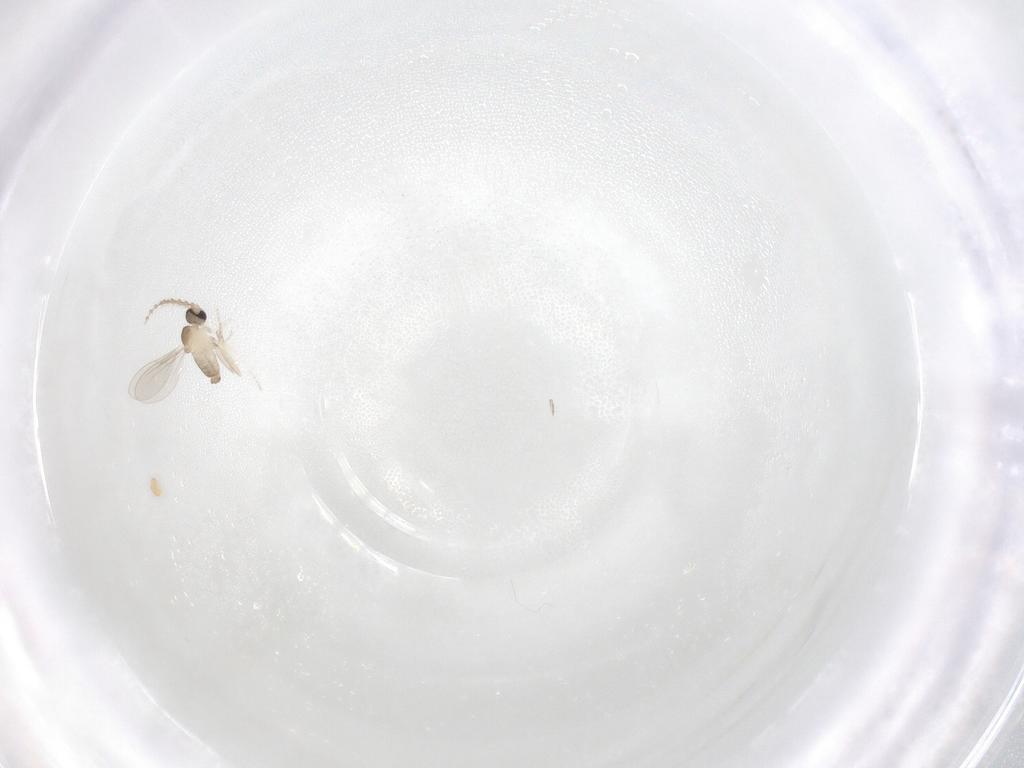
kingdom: Animalia
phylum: Arthropoda
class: Insecta
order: Diptera
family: Cecidomyiidae
